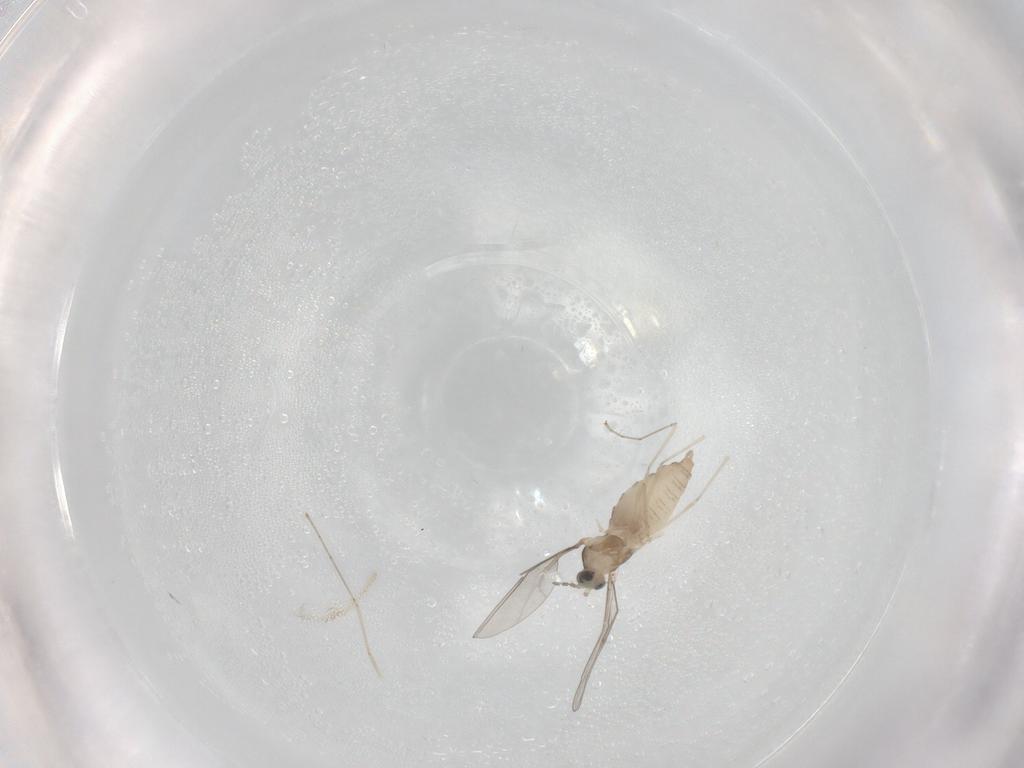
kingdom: Animalia
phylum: Arthropoda
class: Insecta
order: Diptera
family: Cecidomyiidae
